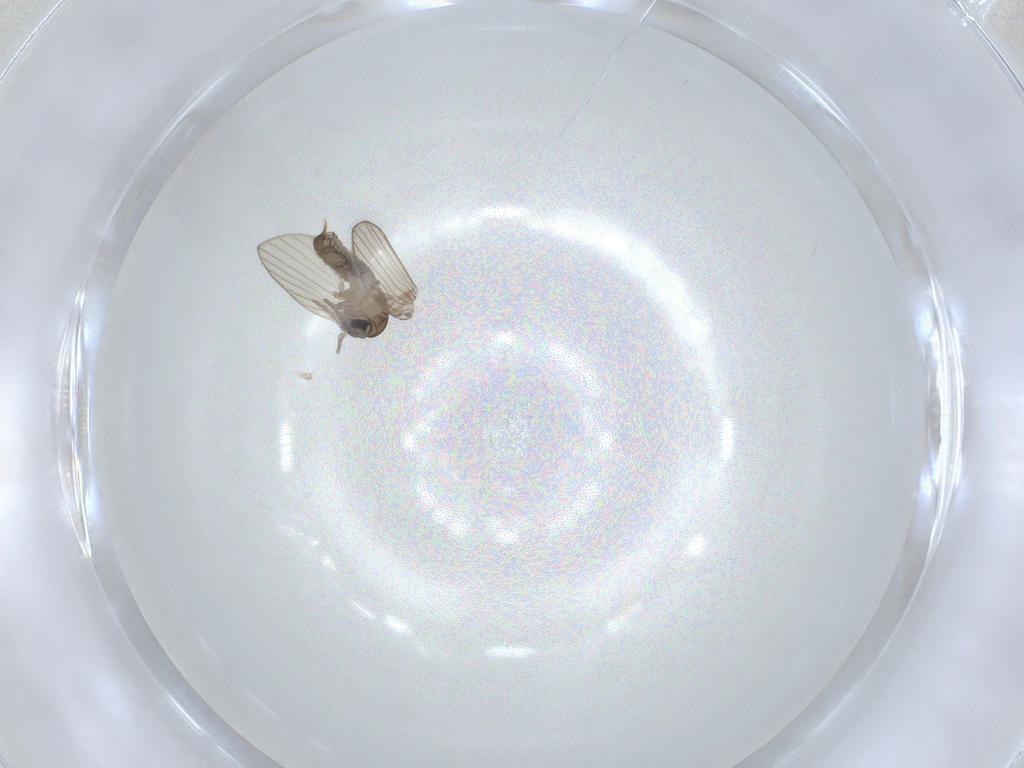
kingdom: Animalia
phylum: Arthropoda
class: Insecta
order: Diptera
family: Psychodidae
